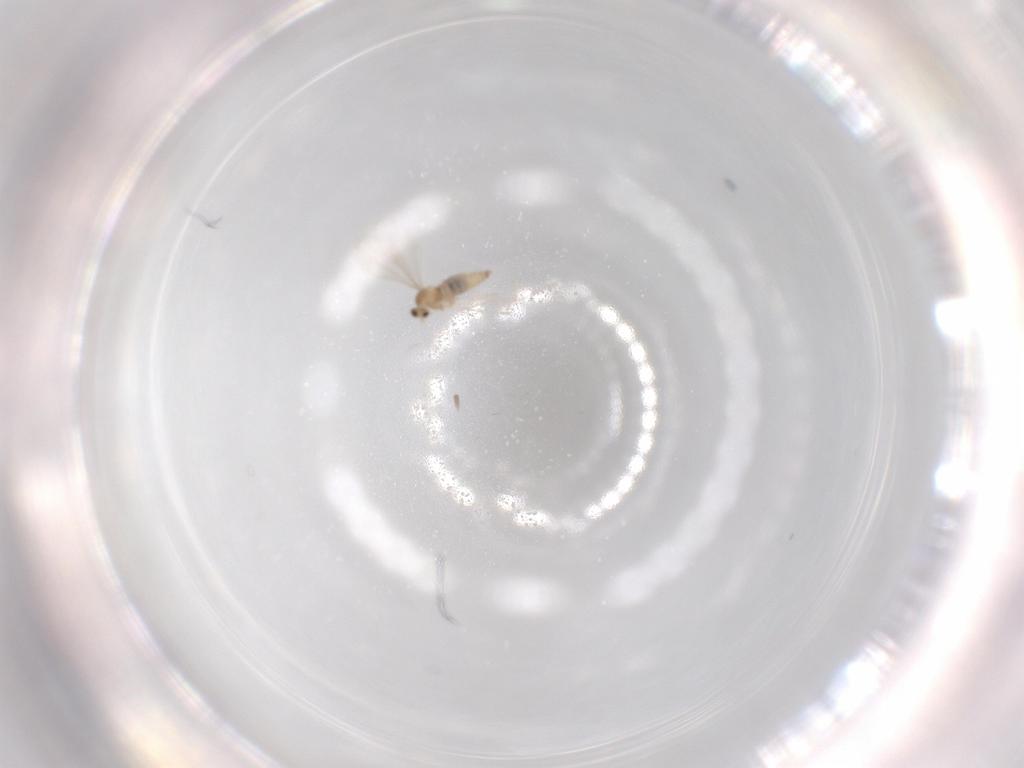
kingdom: Animalia
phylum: Arthropoda
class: Insecta
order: Diptera
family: Cecidomyiidae
